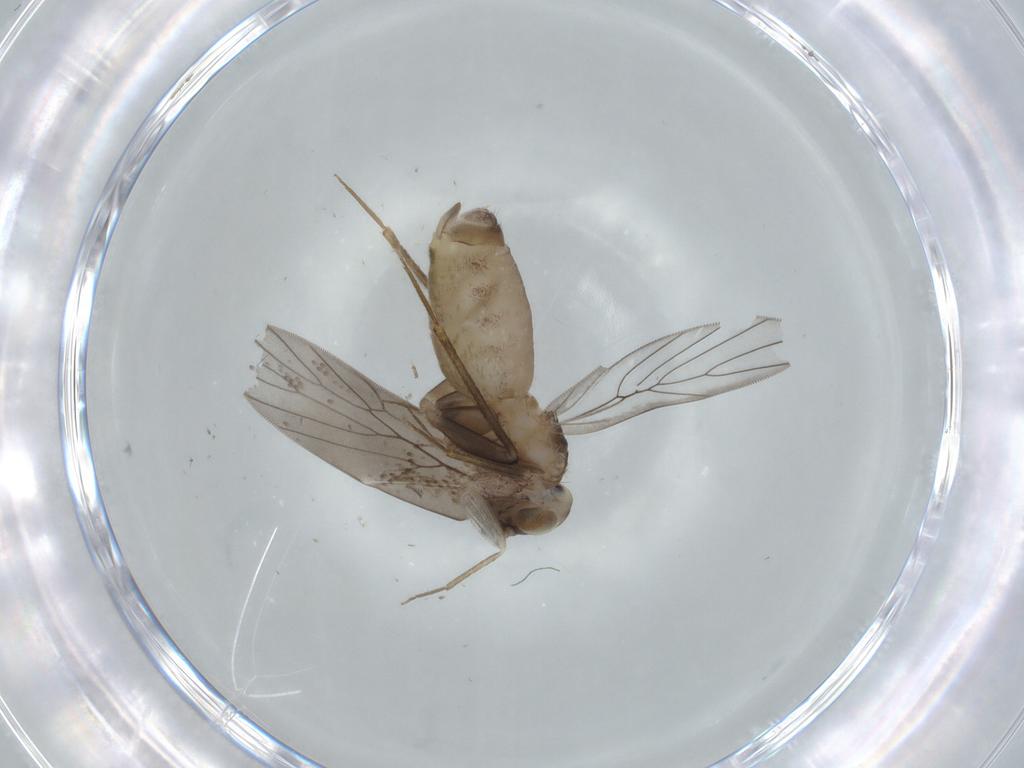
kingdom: Animalia
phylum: Arthropoda
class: Insecta
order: Psocodea
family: Lepidopsocidae
